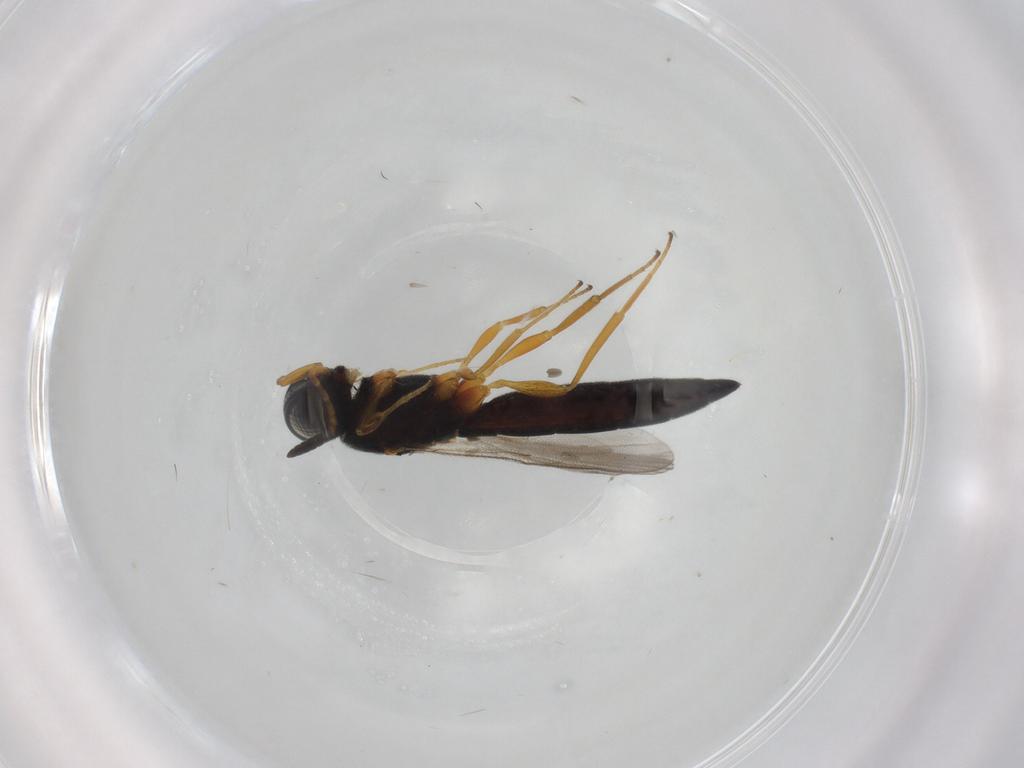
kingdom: Animalia
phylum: Arthropoda
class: Insecta
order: Hymenoptera
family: Scelionidae
